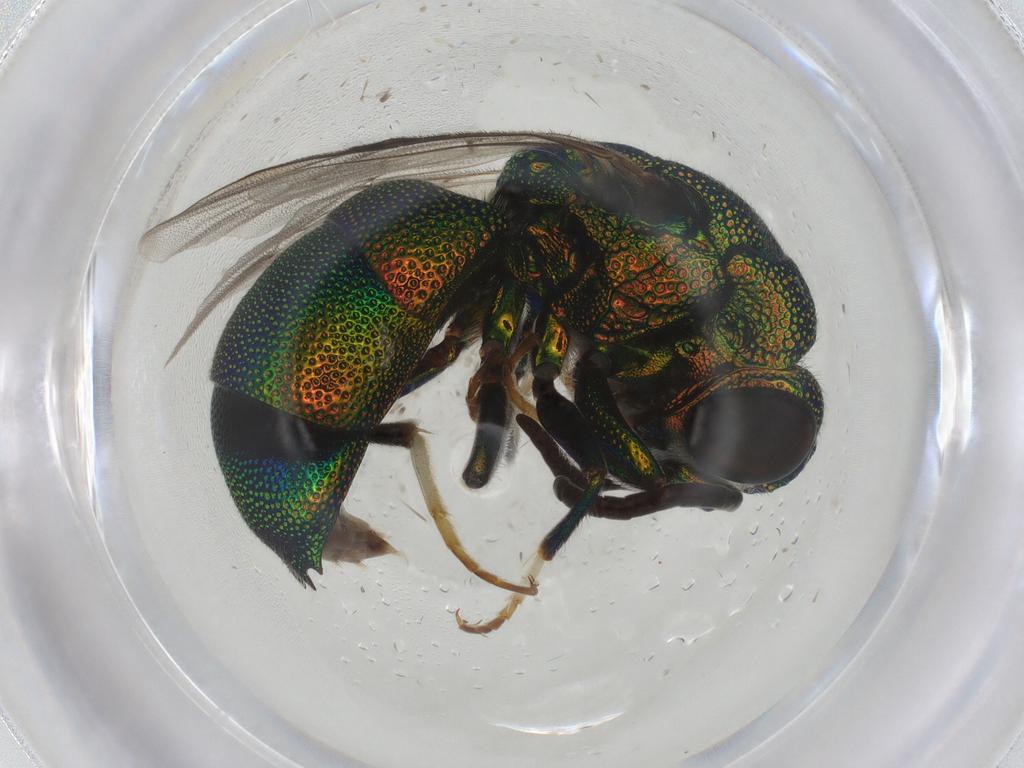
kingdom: Animalia
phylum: Arthropoda
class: Insecta
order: Hymenoptera
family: Chrysididae
